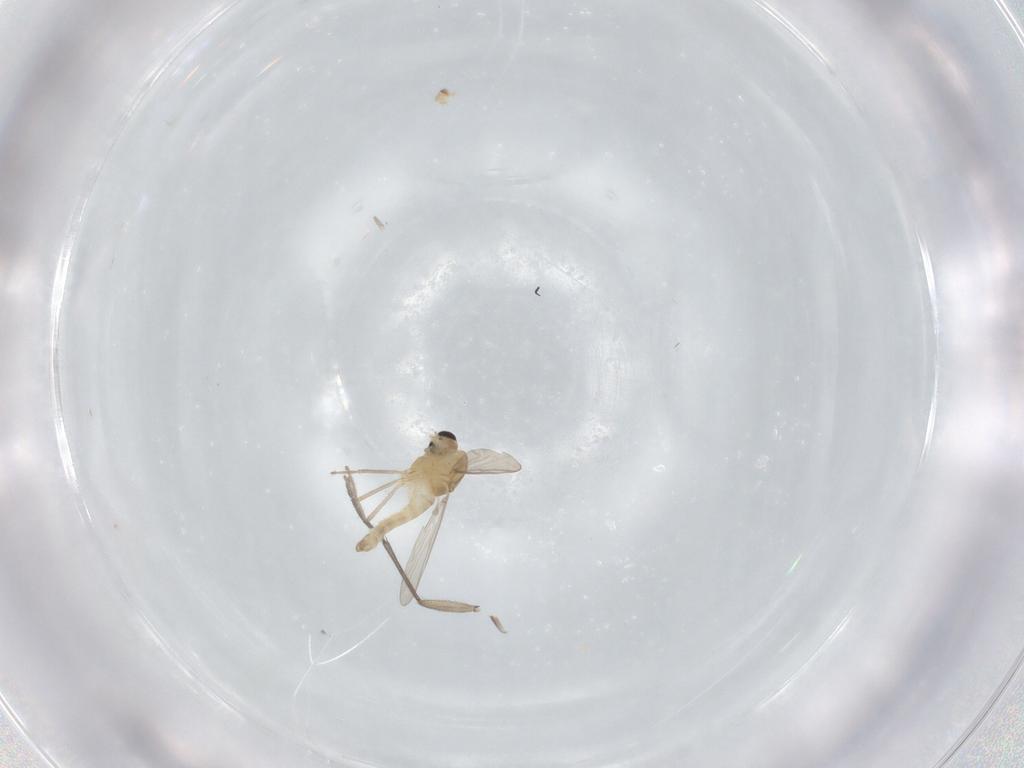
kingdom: Animalia
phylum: Arthropoda
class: Insecta
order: Diptera
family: Chironomidae
